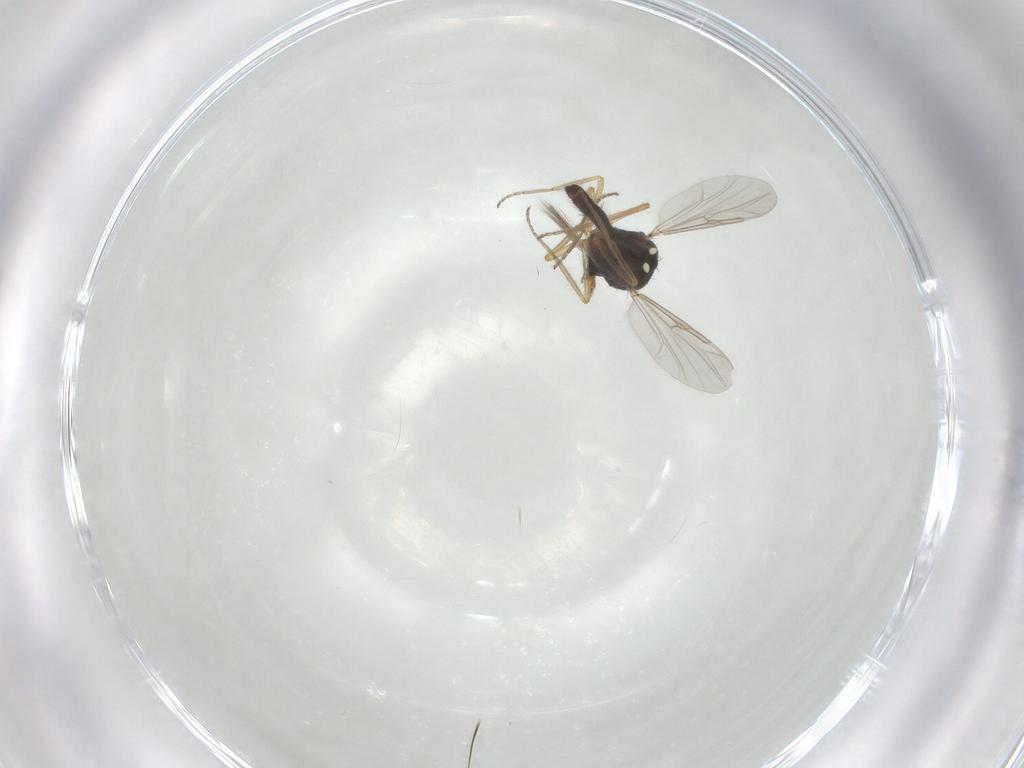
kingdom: Animalia
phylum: Arthropoda
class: Insecta
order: Diptera
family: Ceratopogonidae
